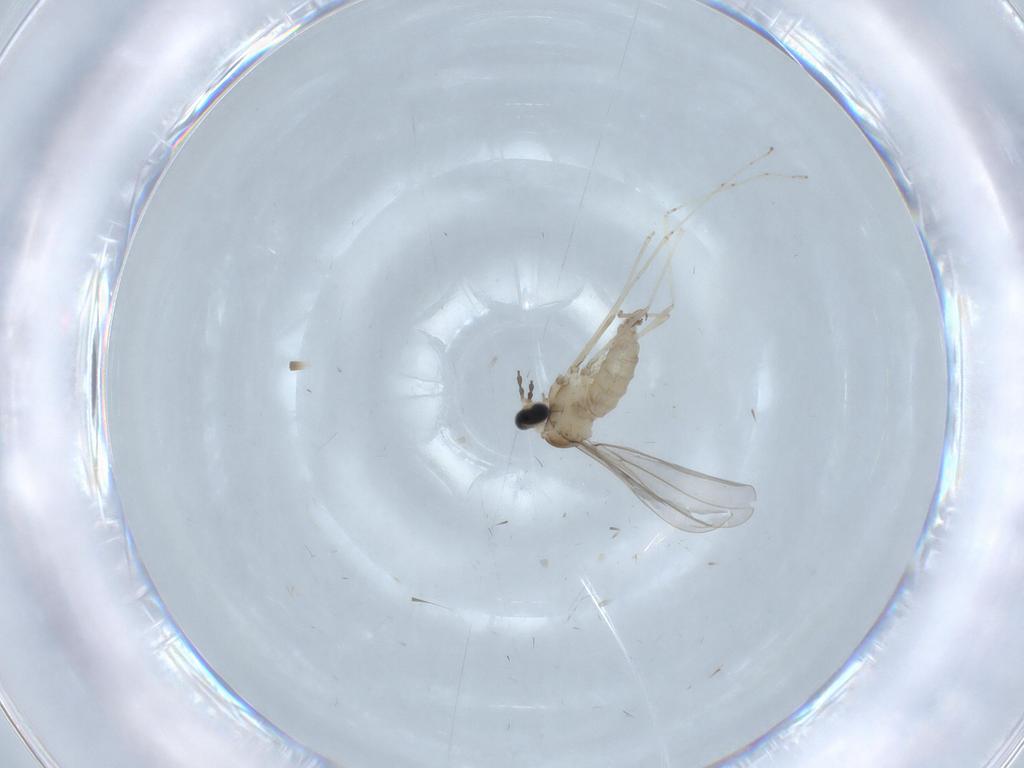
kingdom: Animalia
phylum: Arthropoda
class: Insecta
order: Diptera
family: Cecidomyiidae
